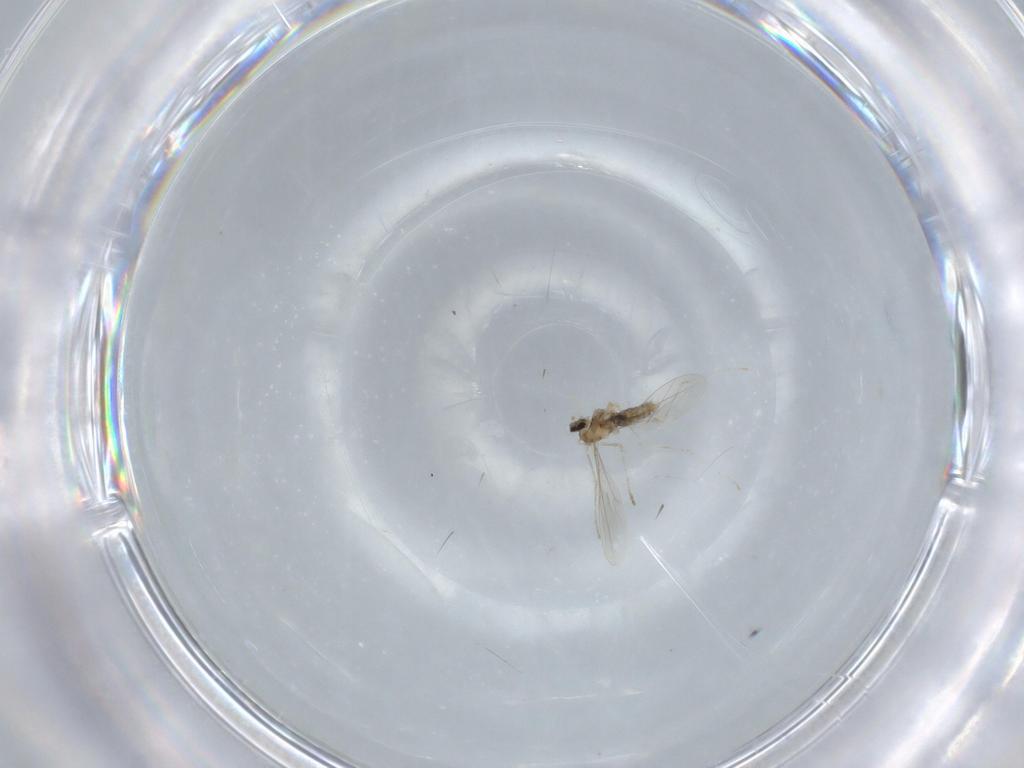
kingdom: Animalia
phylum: Arthropoda
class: Insecta
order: Diptera
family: Cecidomyiidae
